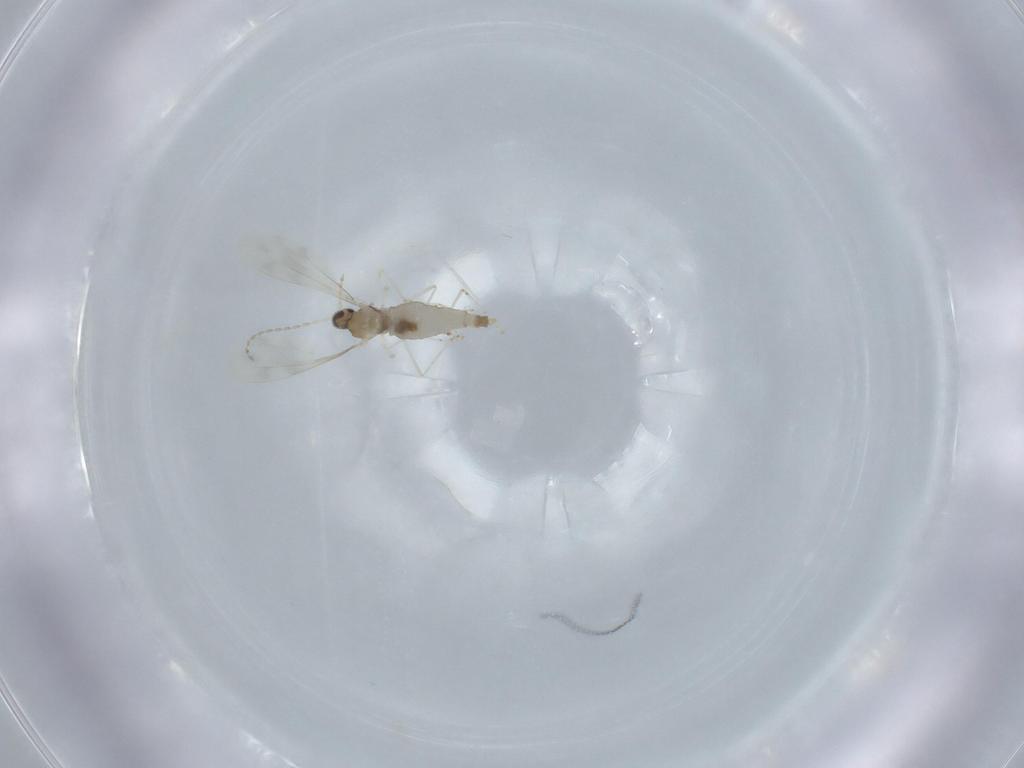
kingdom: Animalia
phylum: Arthropoda
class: Insecta
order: Diptera
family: Cecidomyiidae
